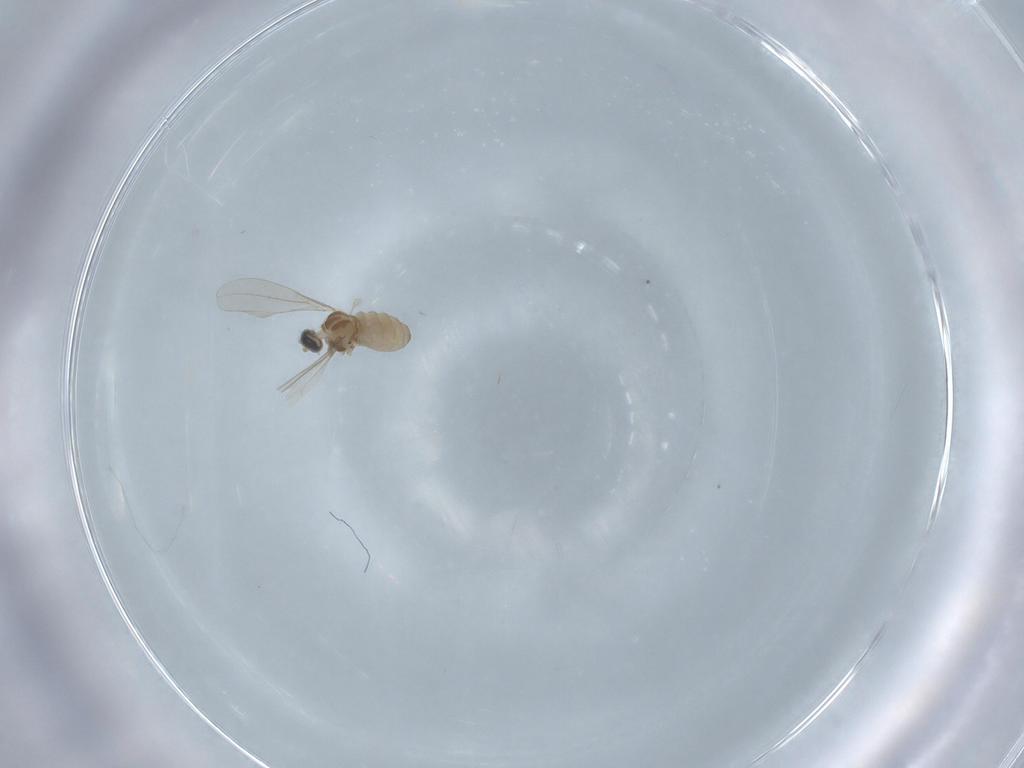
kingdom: Animalia
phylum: Arthropoda
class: Insecta
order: Diptera
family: Cecidomyiidae
